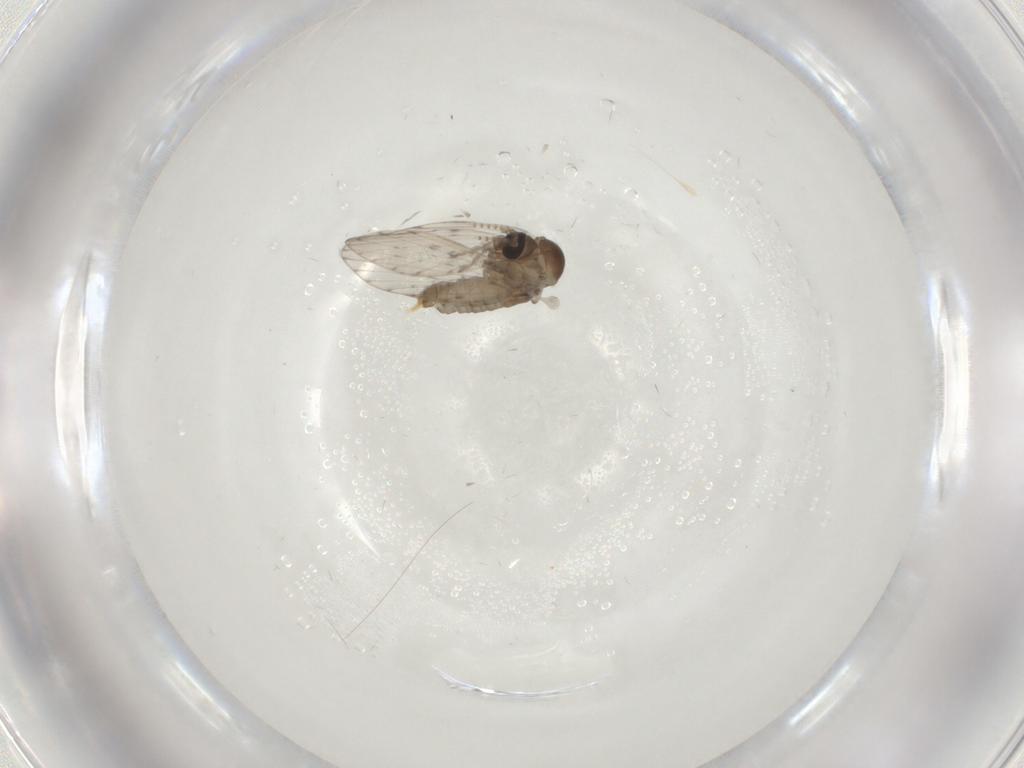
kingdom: Animalia
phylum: Arthropoda
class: Insecta
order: Diptera
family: Psychodidae
